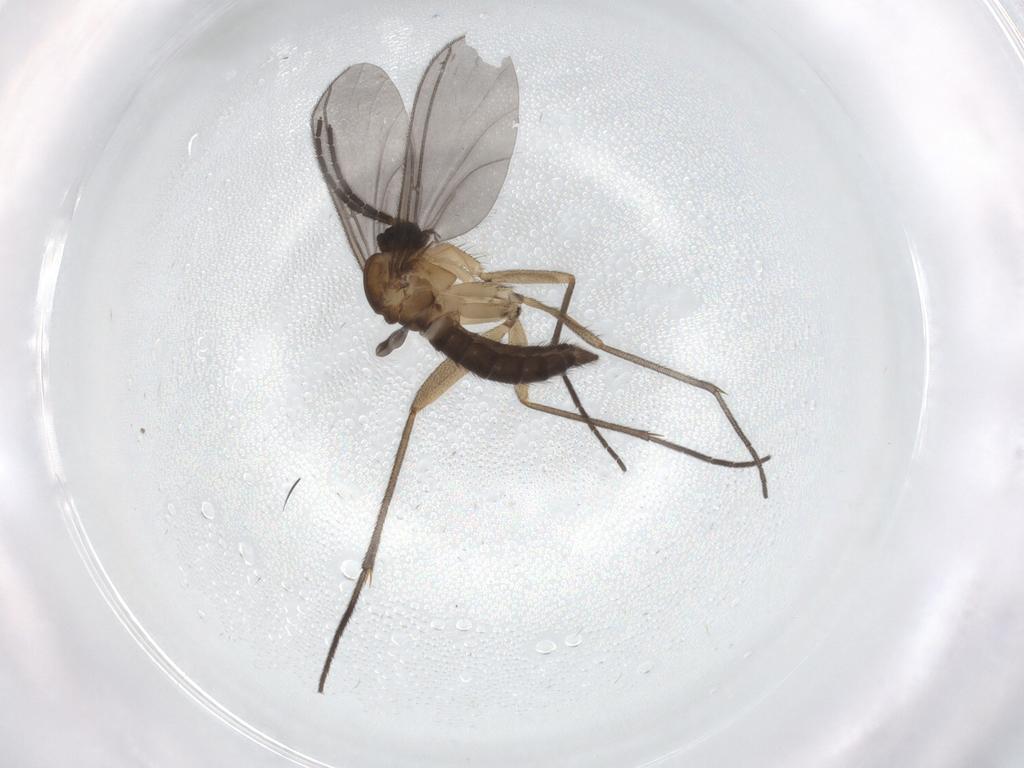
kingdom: Animalia
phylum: Arthropoda
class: Insecta
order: Diptera
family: Sciaridae
